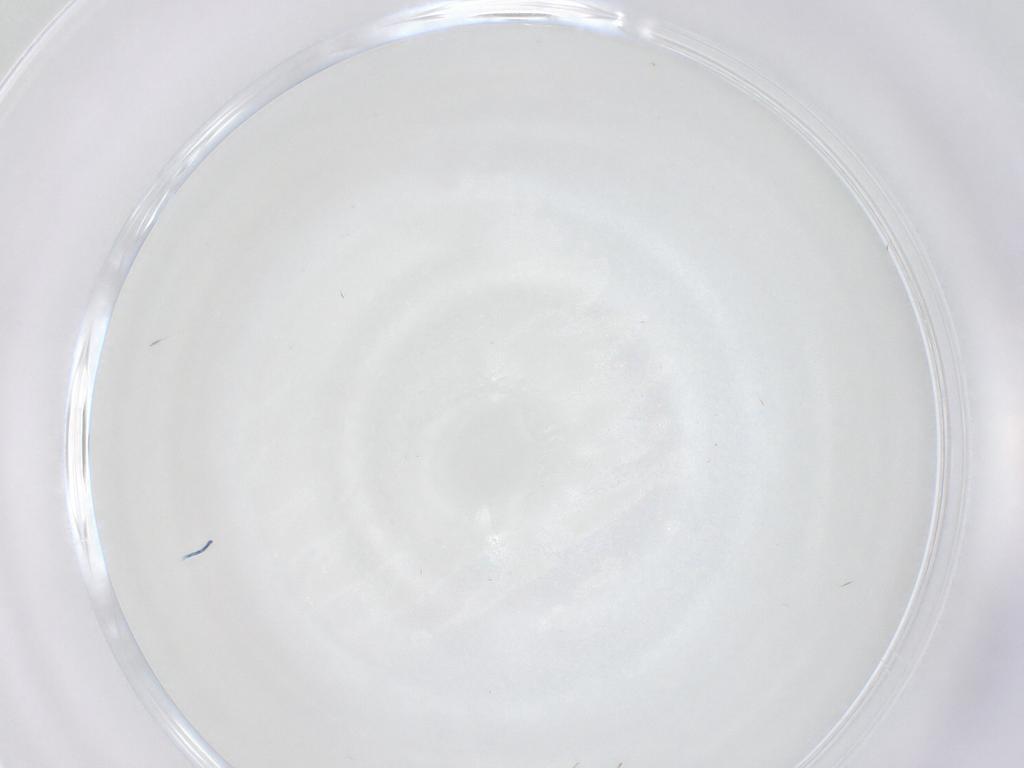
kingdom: Animalia
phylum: Arthropoda
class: Insecta
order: Diptera
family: Cecidomyiidae
